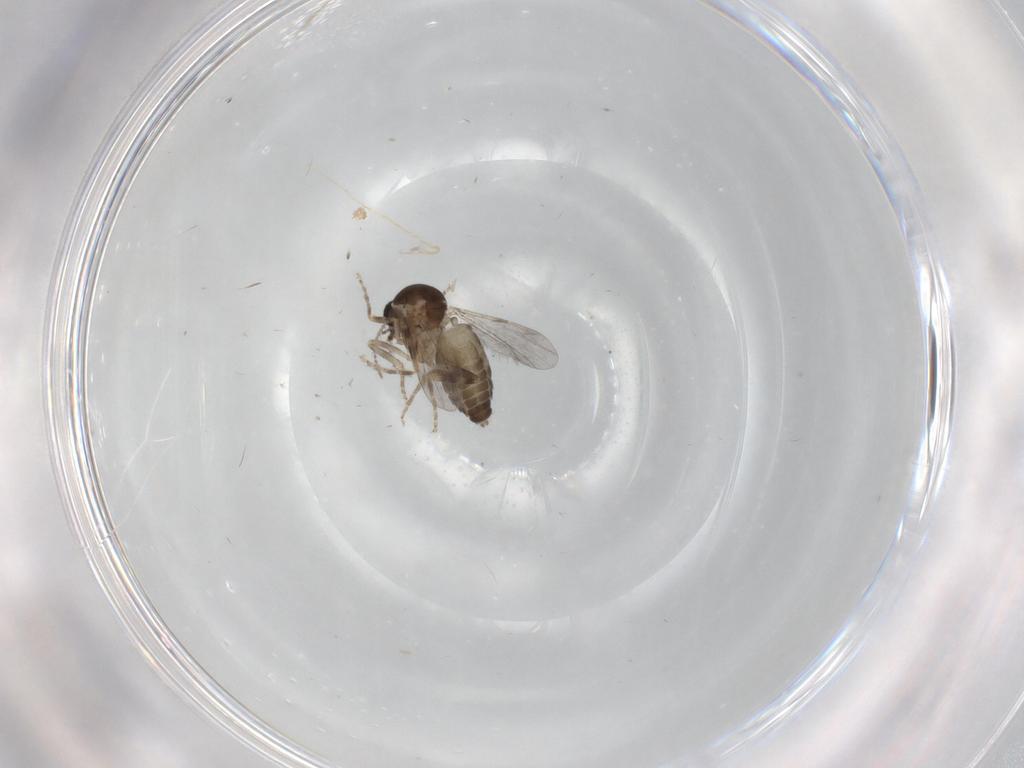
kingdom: Animalia
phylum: Arthropoda
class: Insecta
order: Diptera
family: Ceratopogonidae
